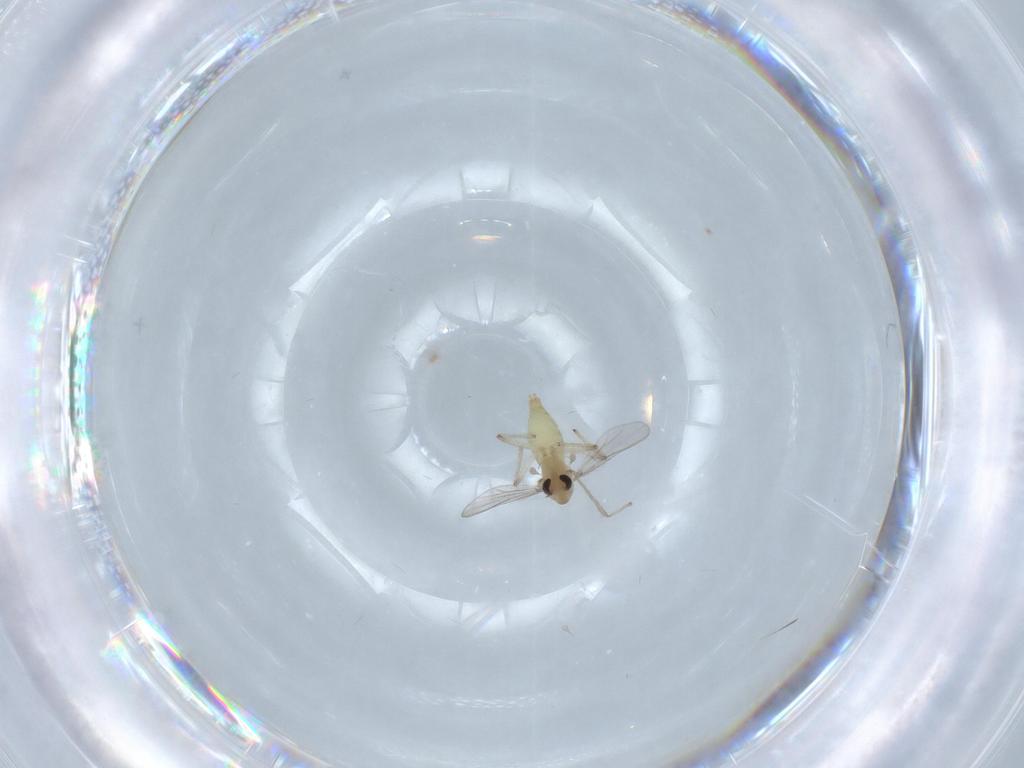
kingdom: Animalia
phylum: Arthropoda
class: Insecta
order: Diptera
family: Chironomidae
